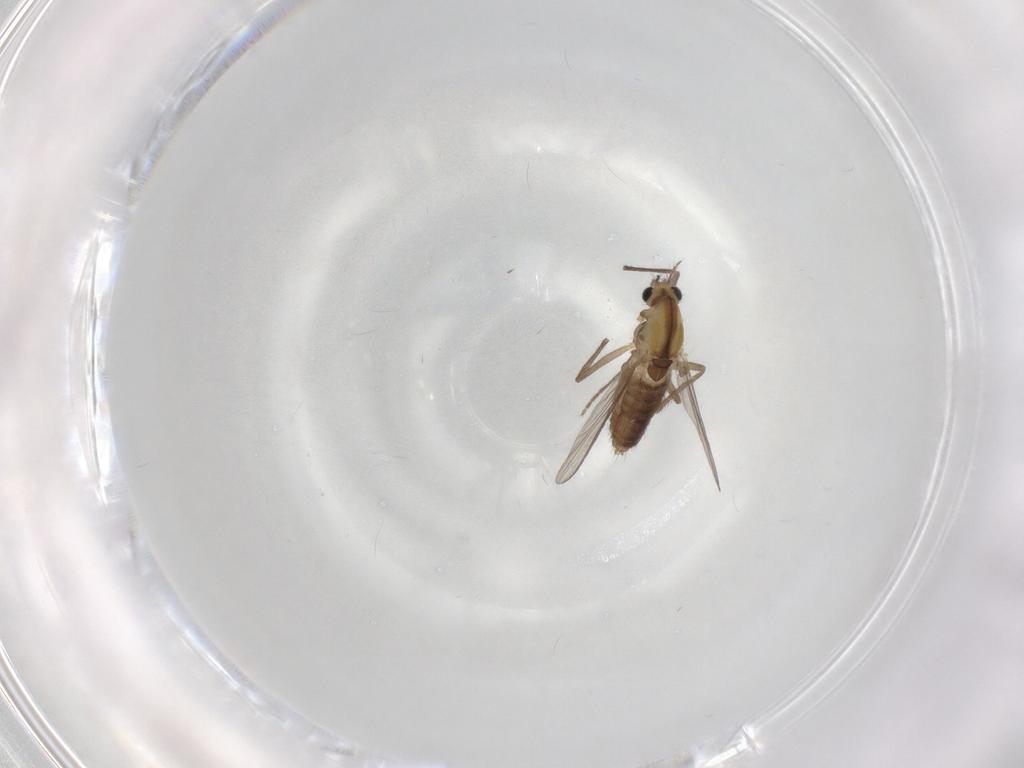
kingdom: Animalia
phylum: Arthropoda
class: Insecta
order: Diptera
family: Chironomidae
